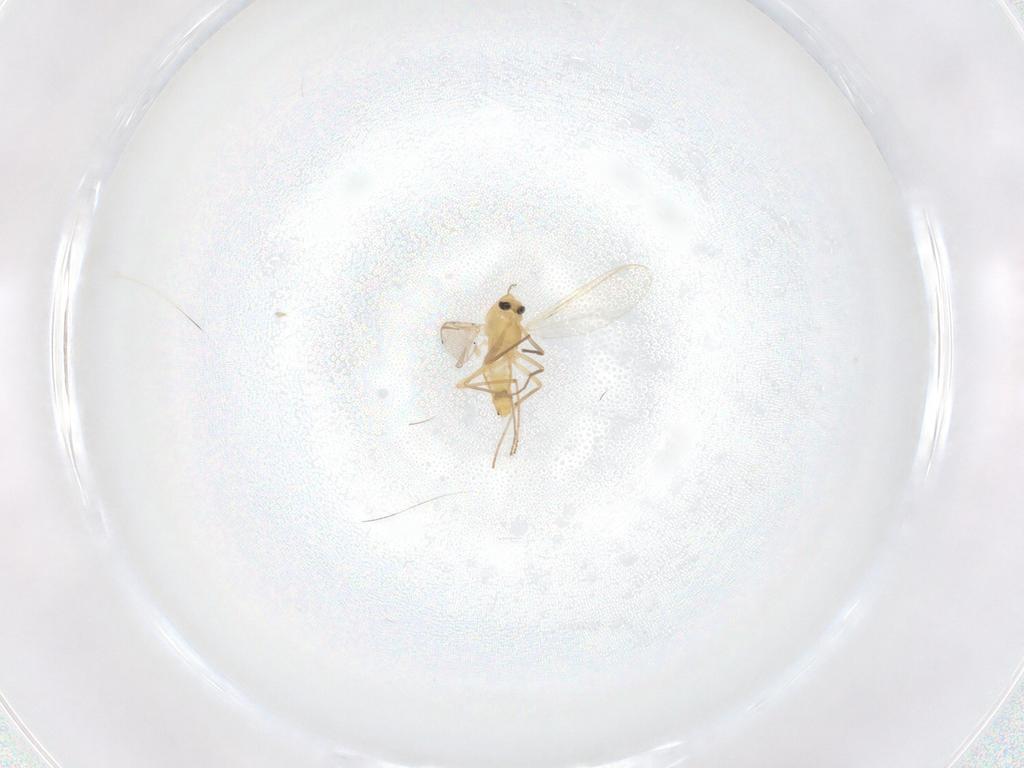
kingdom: Animalia
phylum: Arthropoda
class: Insecta
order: Diptera
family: Chironomidae
